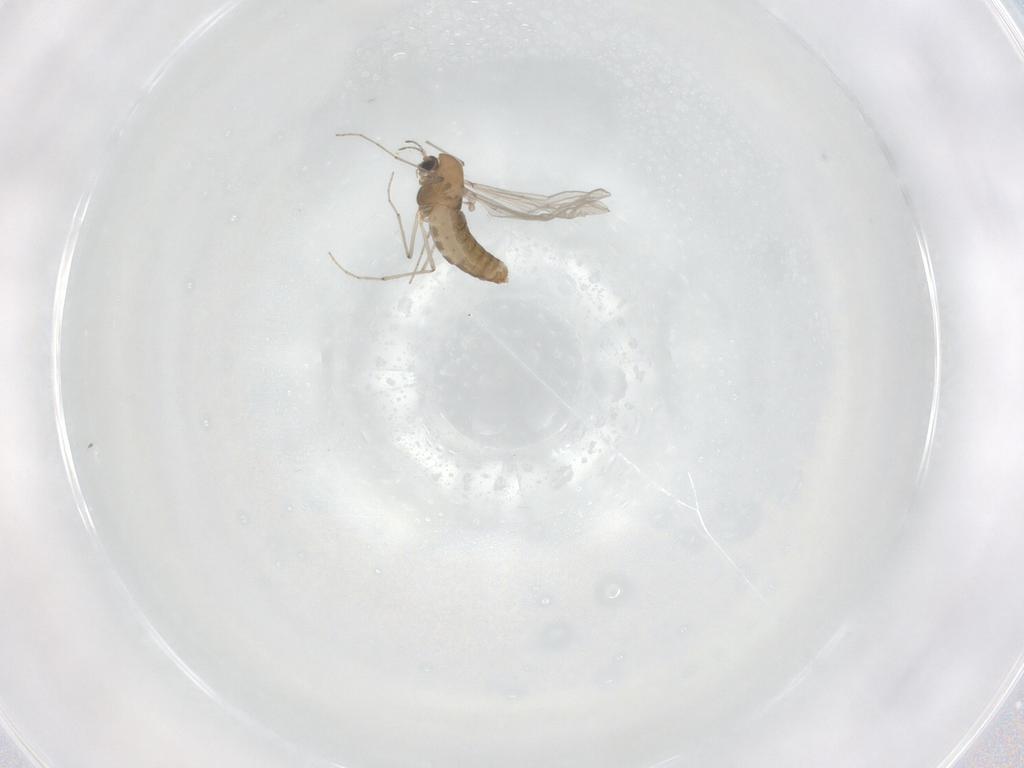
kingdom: Animalia
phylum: Arthropoda
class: Insecta
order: Diptera
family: Chironomidae
